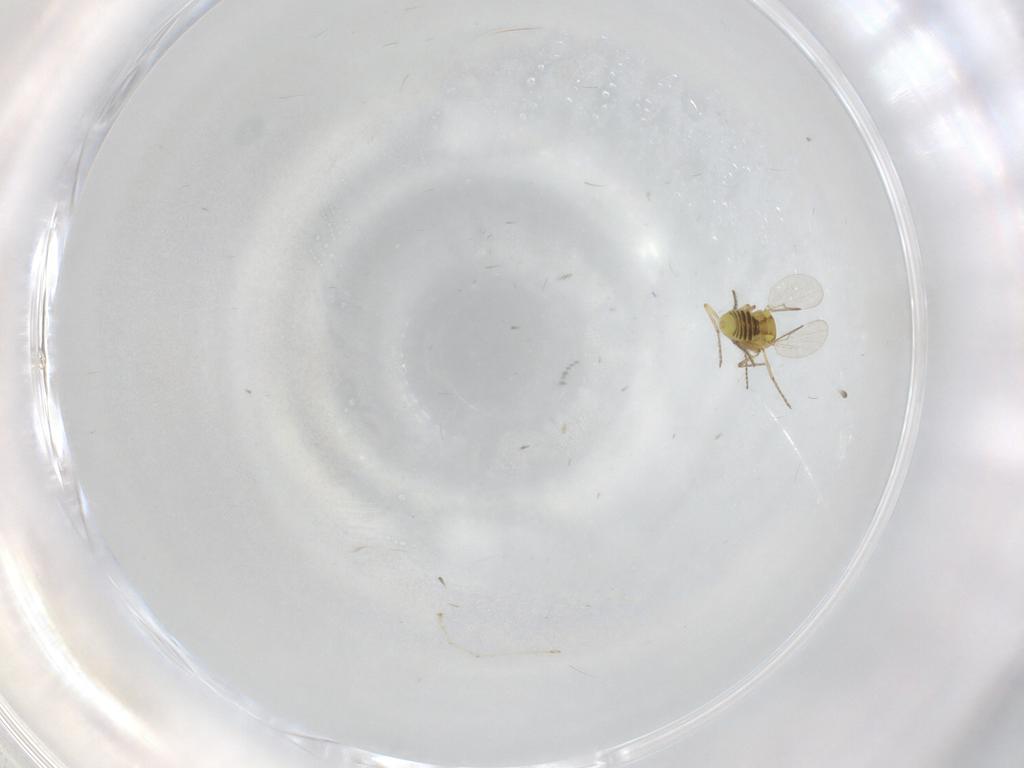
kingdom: Animalia
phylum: Arthropoda
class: Insecta
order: Diptera
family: Ceratopogonidae
